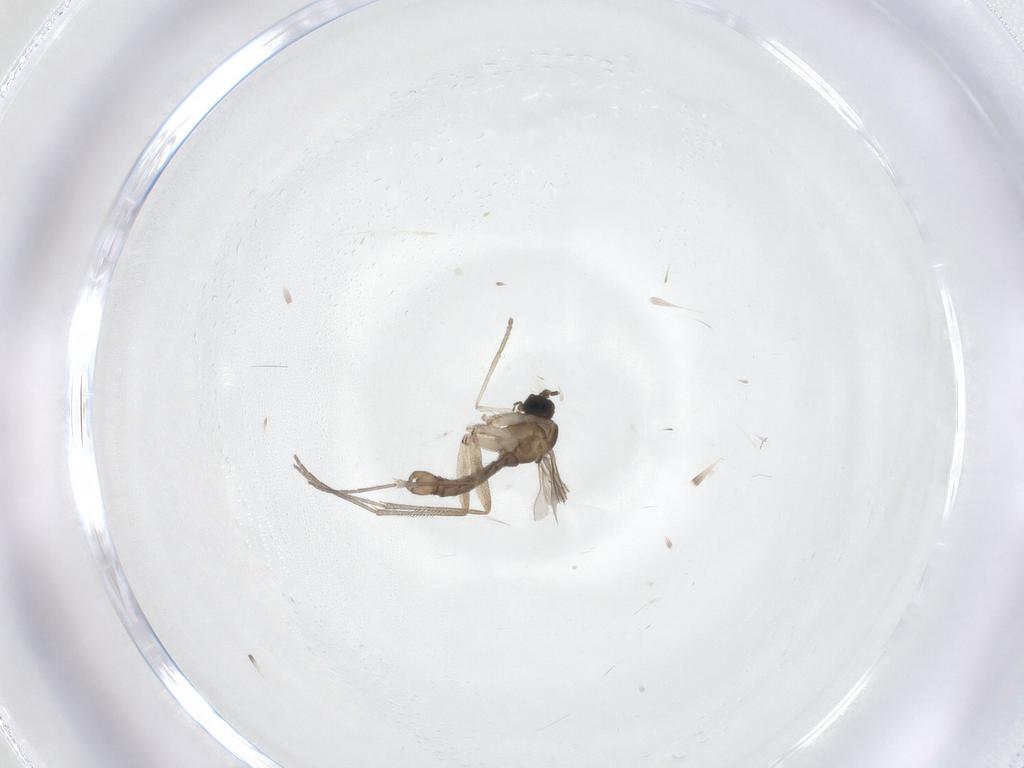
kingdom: Animalia
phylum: Arthropoda
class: Insecta
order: Diptera
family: Sciaridae
